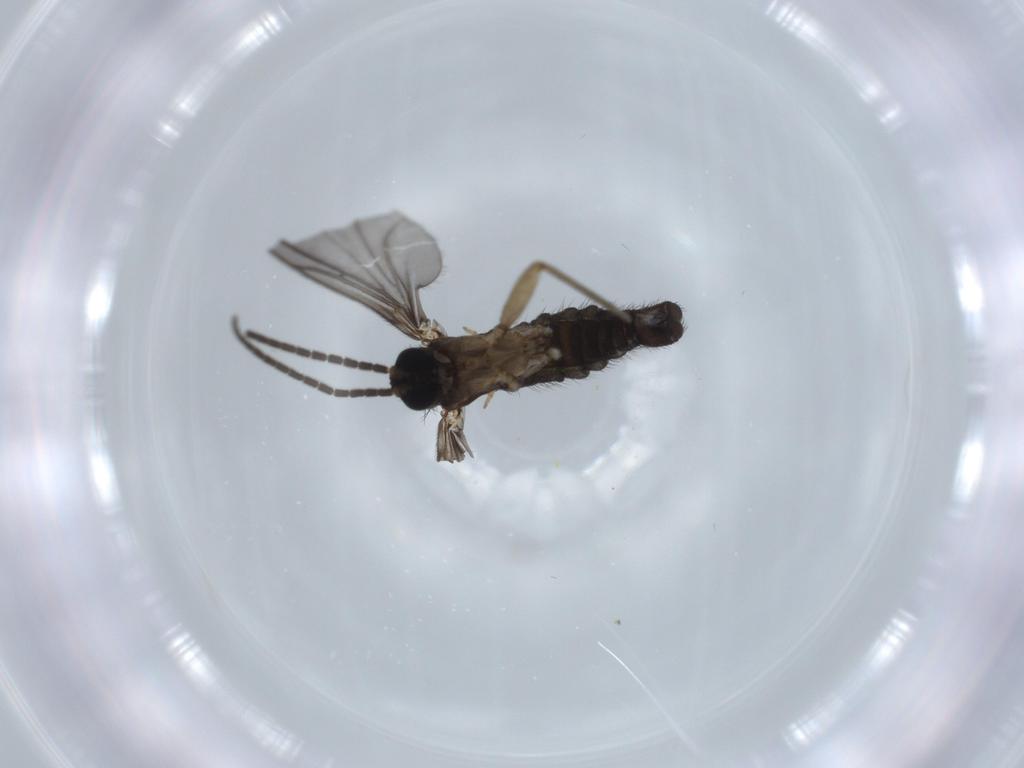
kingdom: Animalia
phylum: Arthropoda
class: Insecta
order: Diptera
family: Sciaridae
